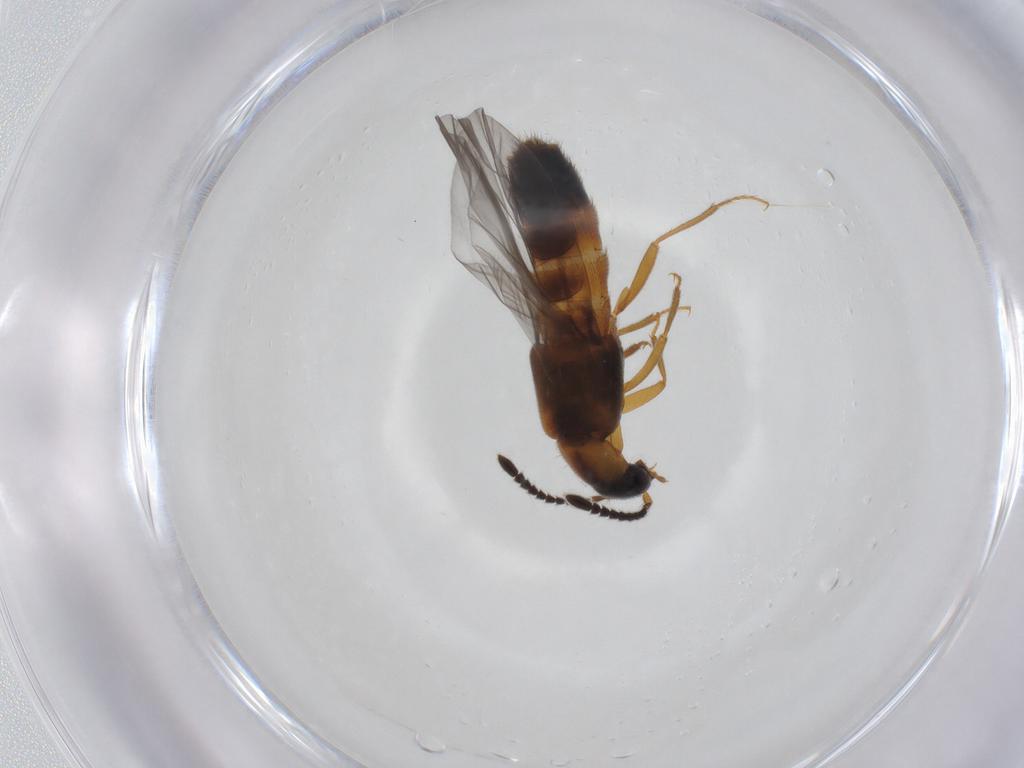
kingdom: Animalia
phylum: Arthropoda
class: Insecta
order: Coleoptera
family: Staphylinidae
